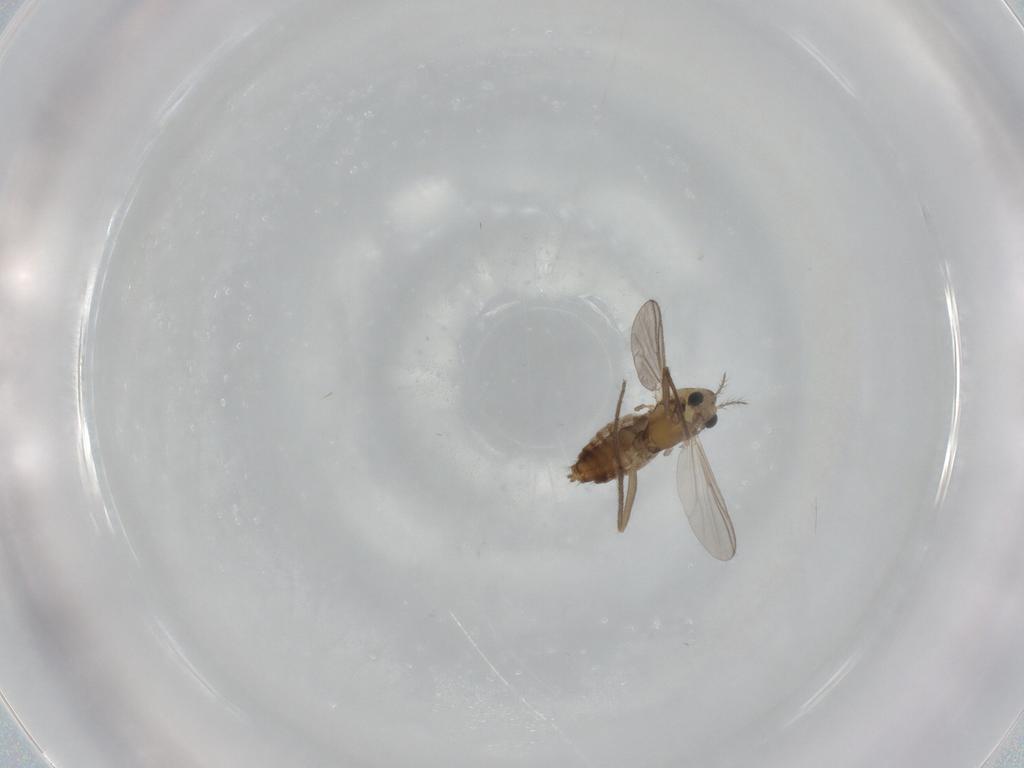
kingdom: Animalia
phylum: Arthropoda
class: Insecta
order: Diptera
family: Chironomidae
